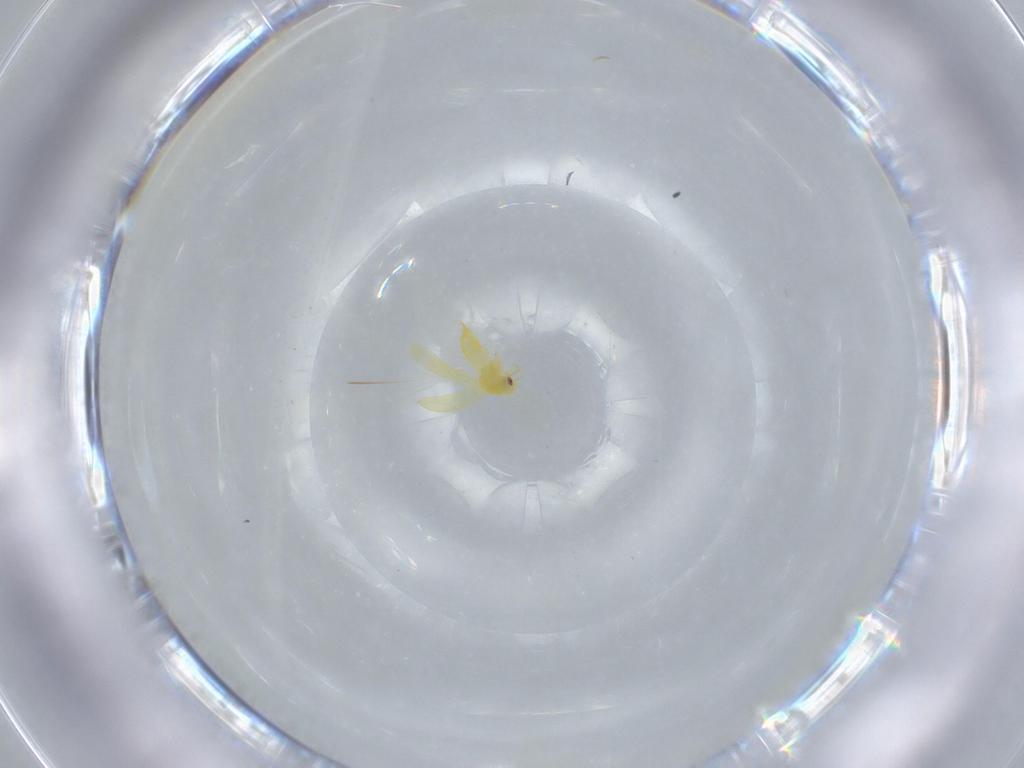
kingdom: Animalia
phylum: Arthropoda
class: Insecta
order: Hemiptera
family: Aleyrodidae
